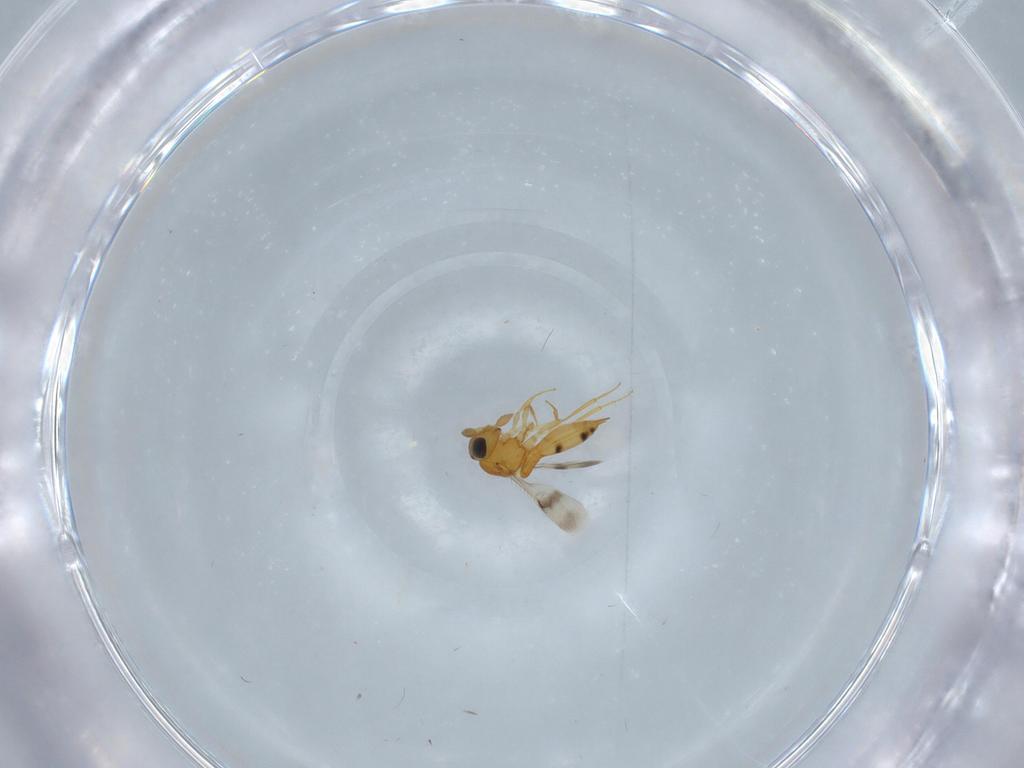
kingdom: Animalia
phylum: Arthropoda
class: Insecta
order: Hymenoptera
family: Scelionidae
